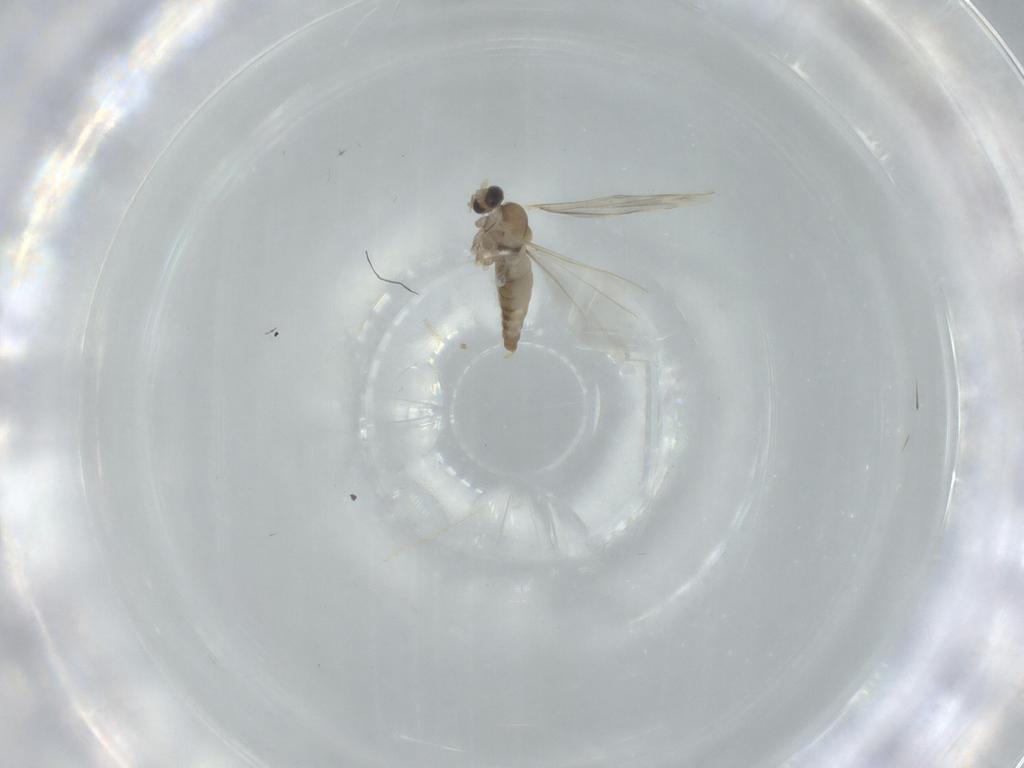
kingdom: Animalia
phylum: Arthropoda
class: Insecta
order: Diptera
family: Cecidomyiidae
